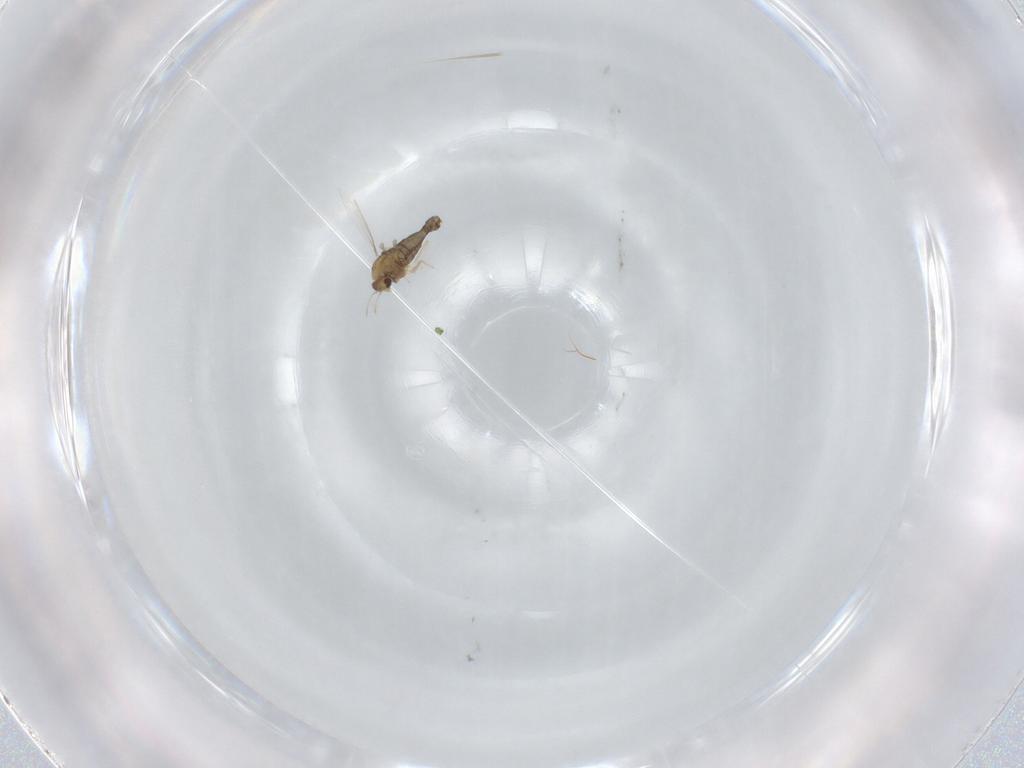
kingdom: Animalia
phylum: Arthropoda
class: Insecta
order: Diptera
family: Chironomidae
